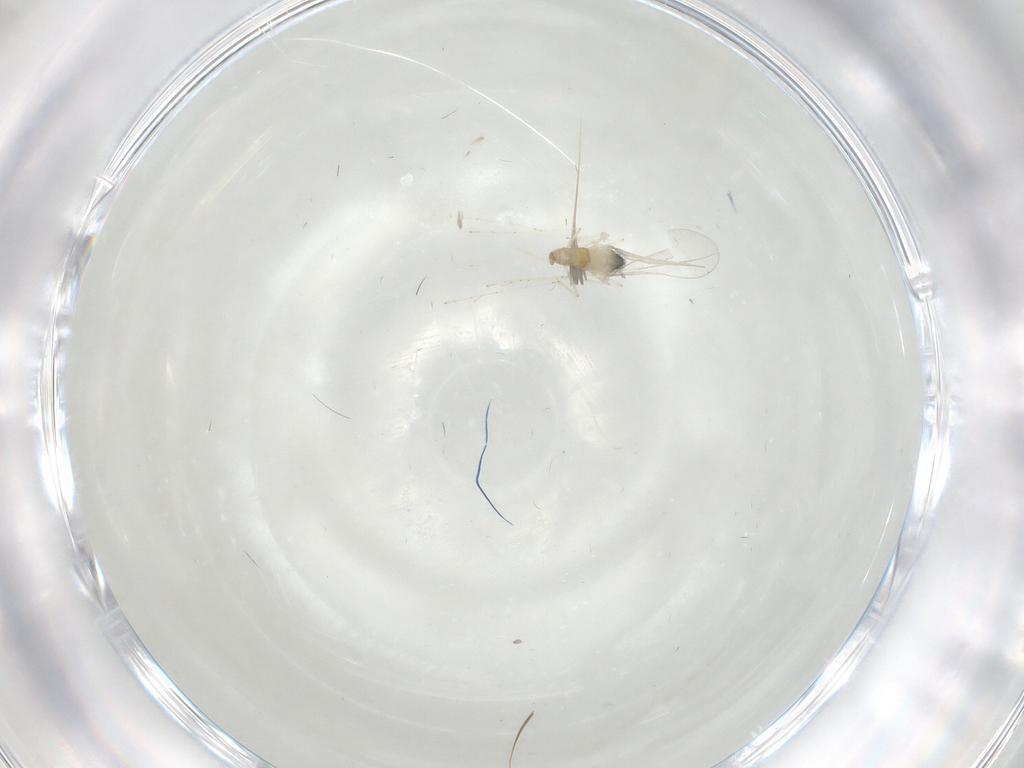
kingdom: Animalia
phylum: Arthropoda
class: Insecta
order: Diptera
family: Cecidomyiidae
